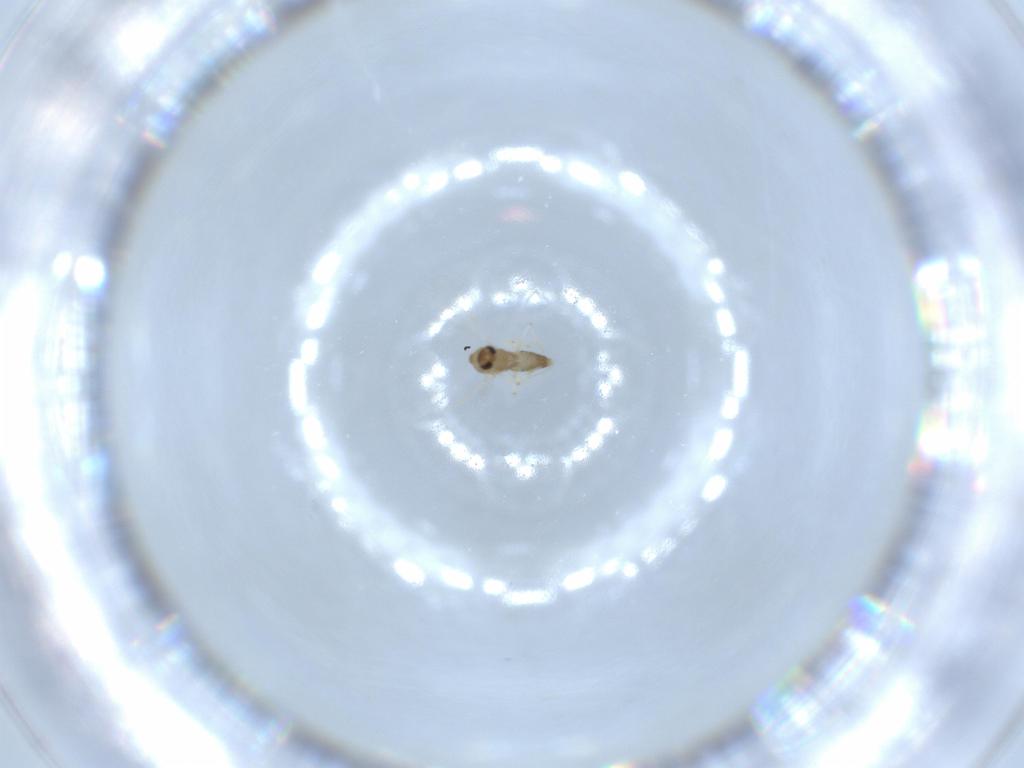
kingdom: Animalia
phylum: Arthropoda
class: Insecta
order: Diptera
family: Chironomidae
